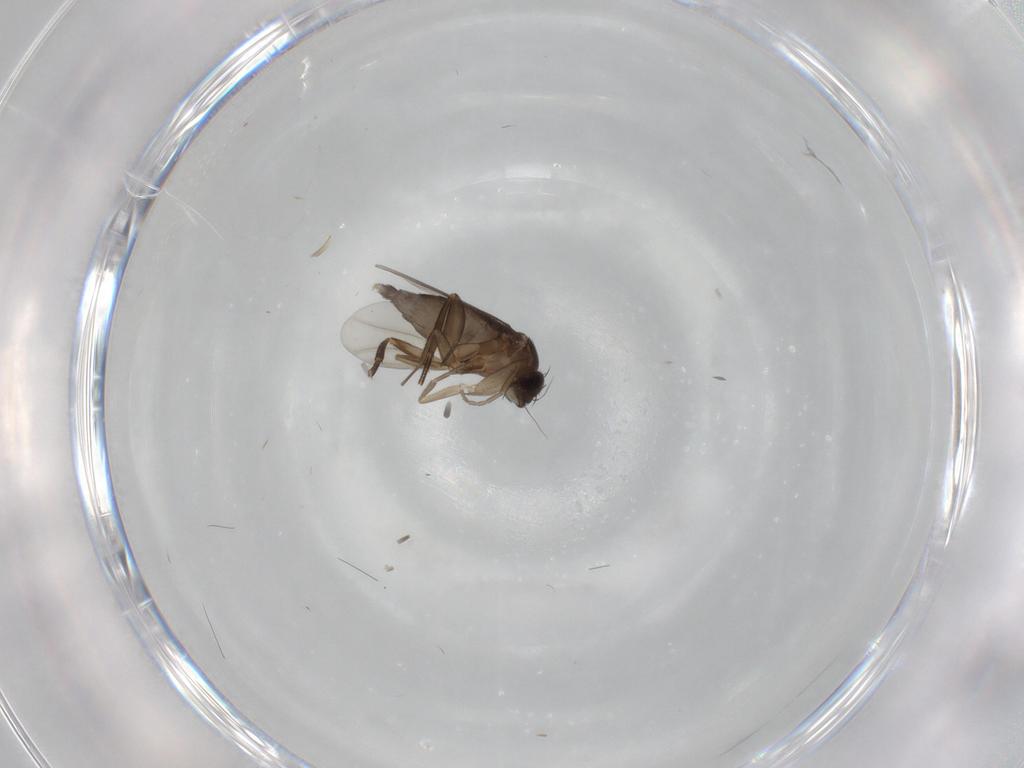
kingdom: Animalia
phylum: Arthropoda
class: Insecta
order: Diptera
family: Phoridae
